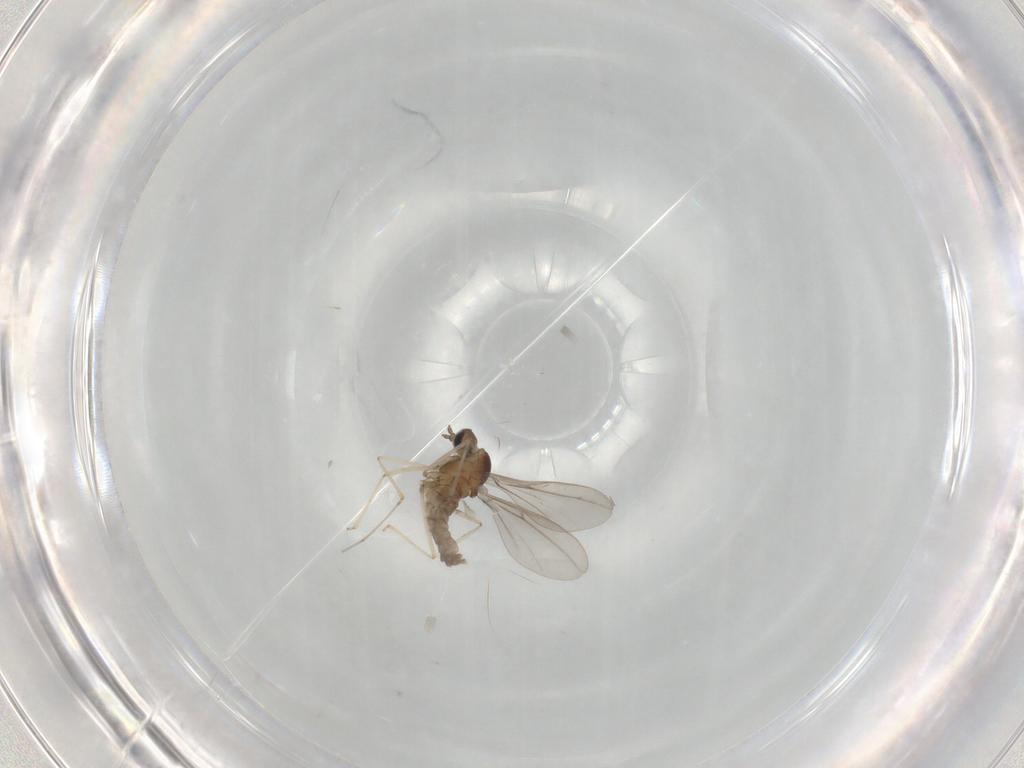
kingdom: Animalia
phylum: Arthropoda
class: Insecta
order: Diptera
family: Cecidomyiidae
